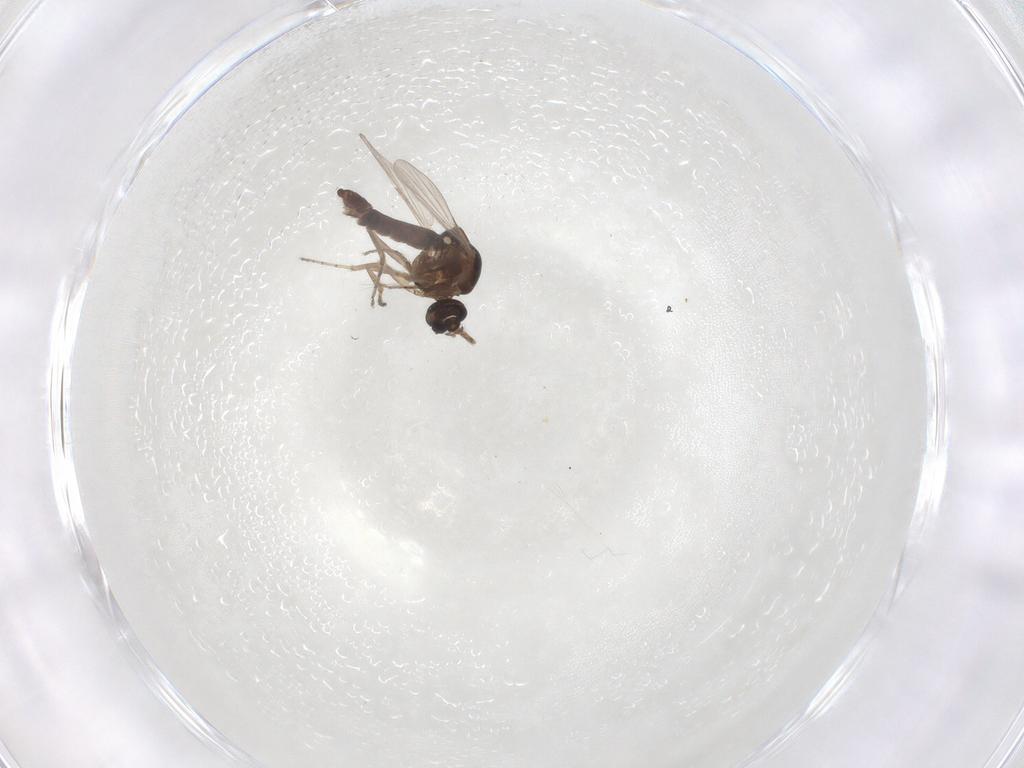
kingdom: Animalia
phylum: Arthropoda
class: Insecta
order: Diptera
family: Ceratopogonidae
